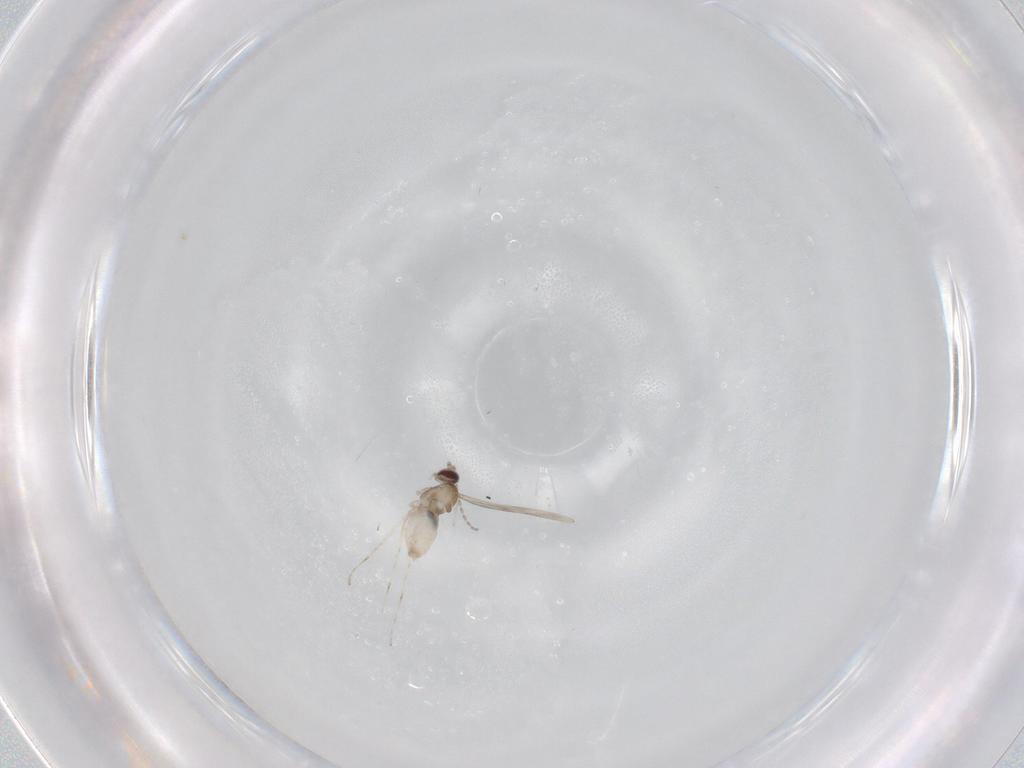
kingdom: Animalia
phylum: Arthropoda
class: Insecta
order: Diptera
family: Cecidomyiidae
